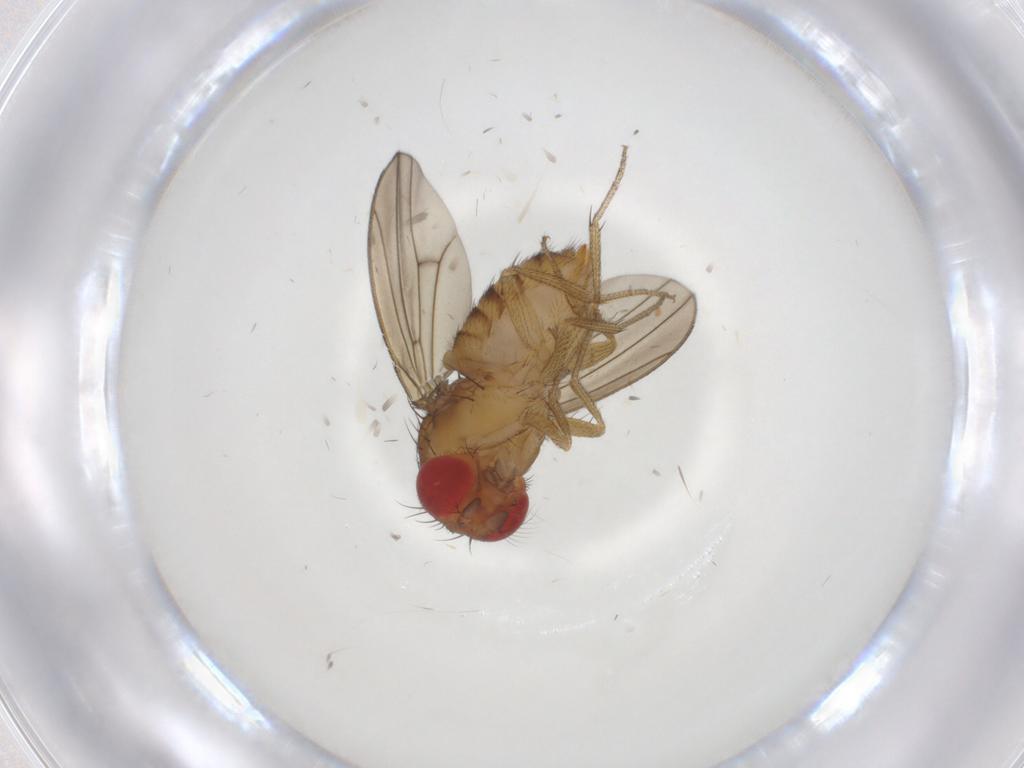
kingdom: Animalia
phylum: Arthropoda
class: Insecta
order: Diptera
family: Drosophilidae
